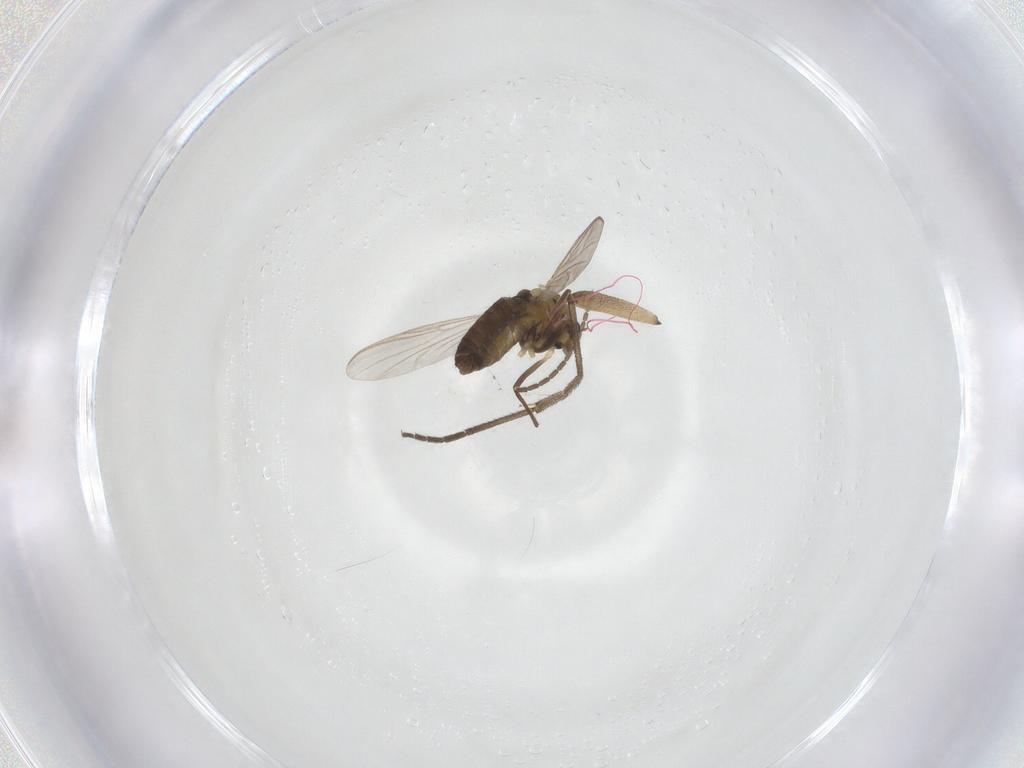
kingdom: Animalia
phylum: Arthropoda
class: Insecta
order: Diptera
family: Sciaridae
